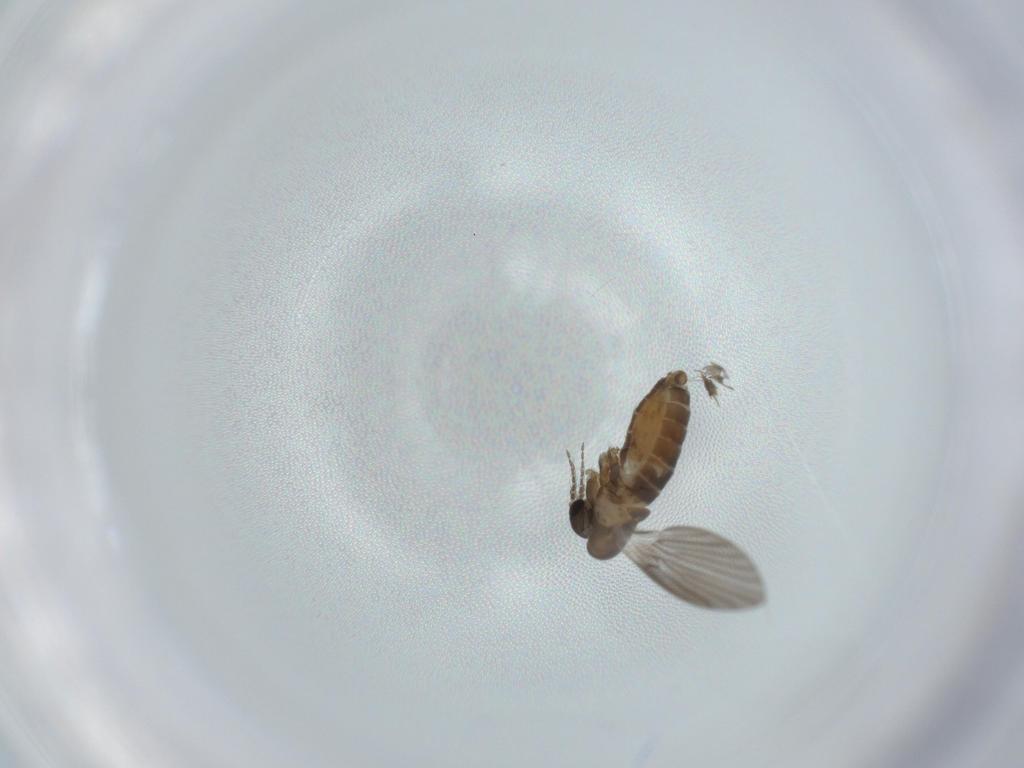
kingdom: Animalia
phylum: Arthropoda
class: Insecta
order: Diptera
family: Psychodidae
